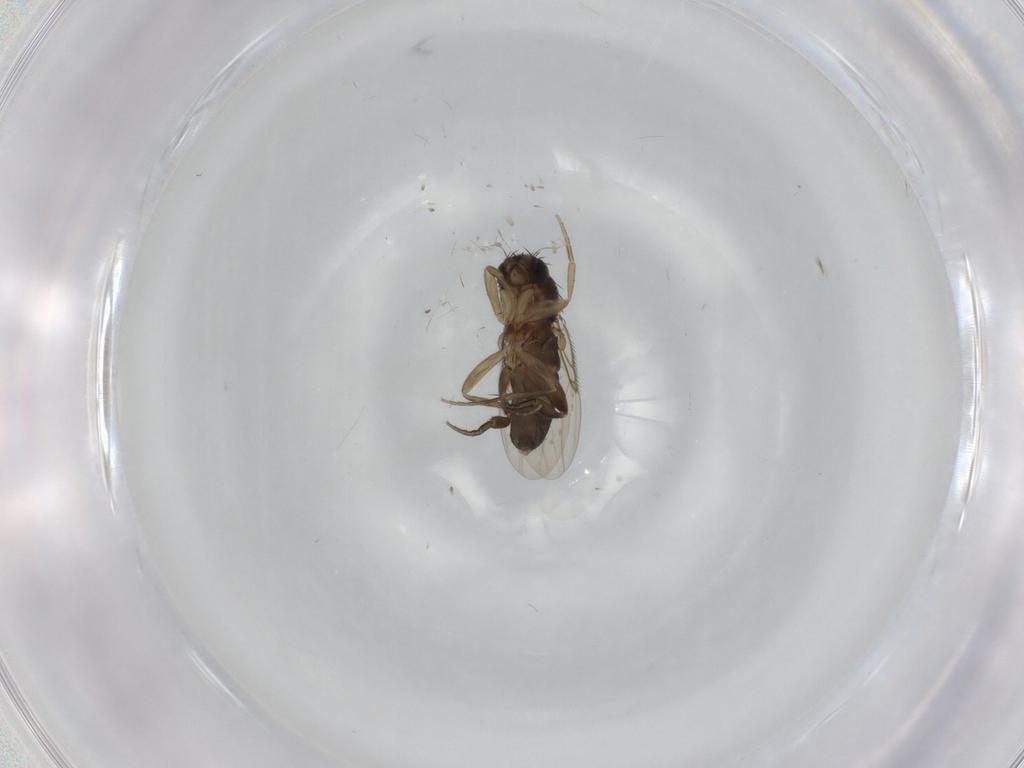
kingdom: Animalia
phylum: Arthropoda
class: Insecta
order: Diptera
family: Phoridae
